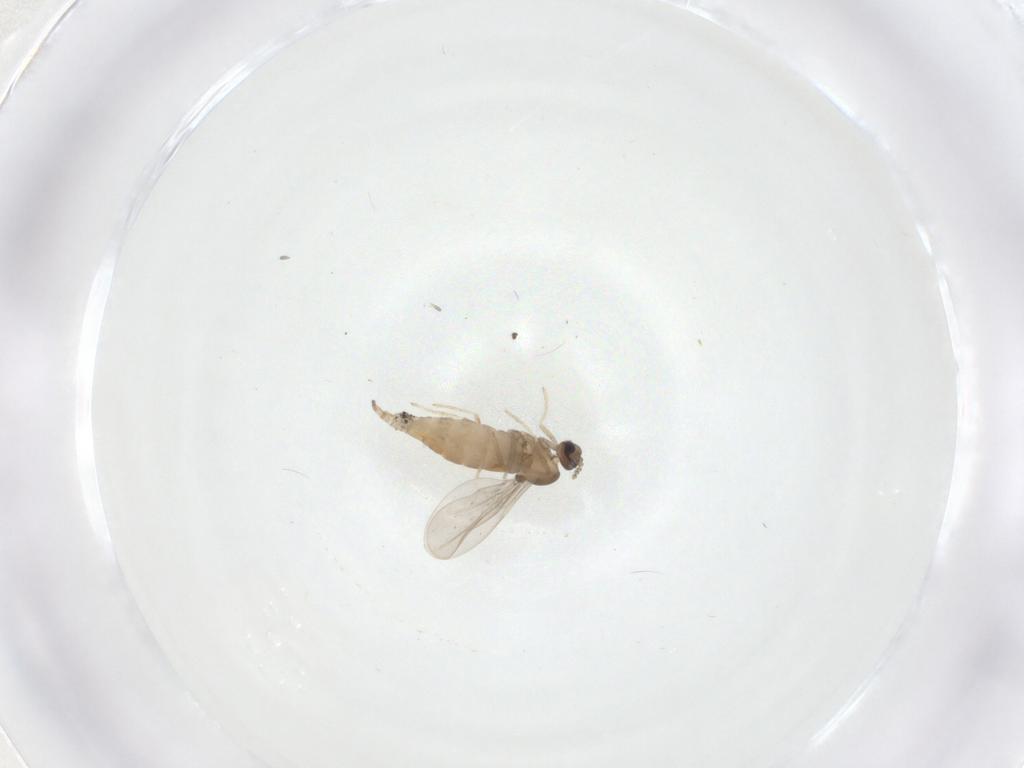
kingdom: Animalia
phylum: Arthropoda
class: Insecta
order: Diptera
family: Cecidomyiidae
